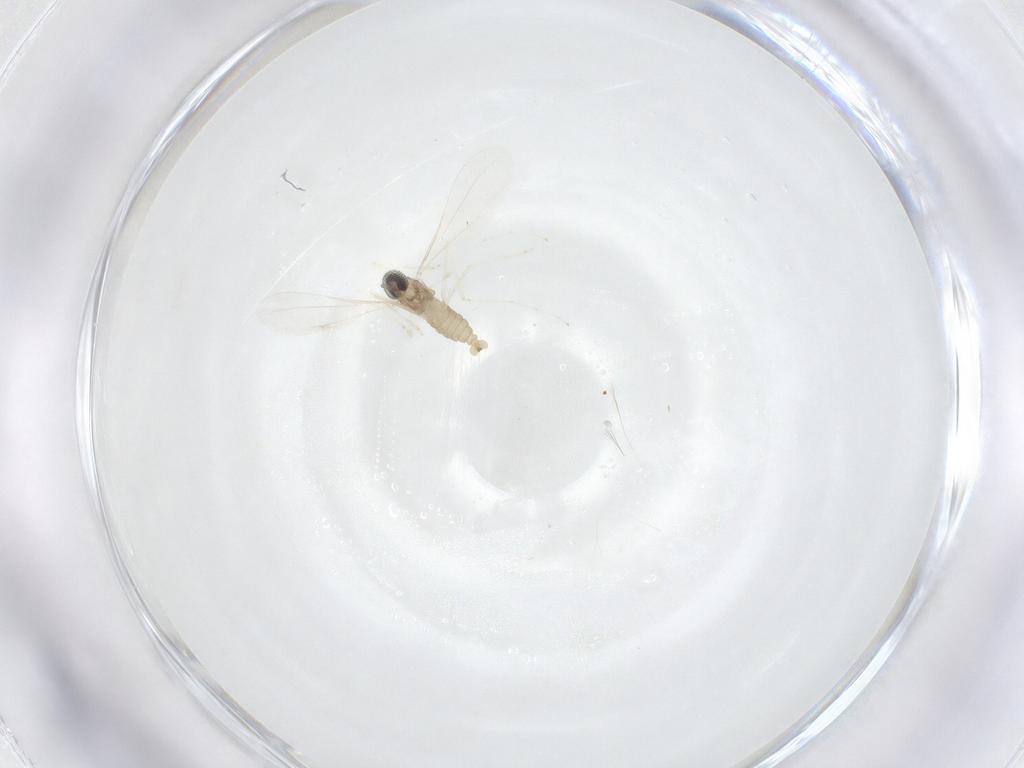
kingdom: Animalia
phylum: Arthropoda
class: Insecta
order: Diptera
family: Cecidomyiidae
